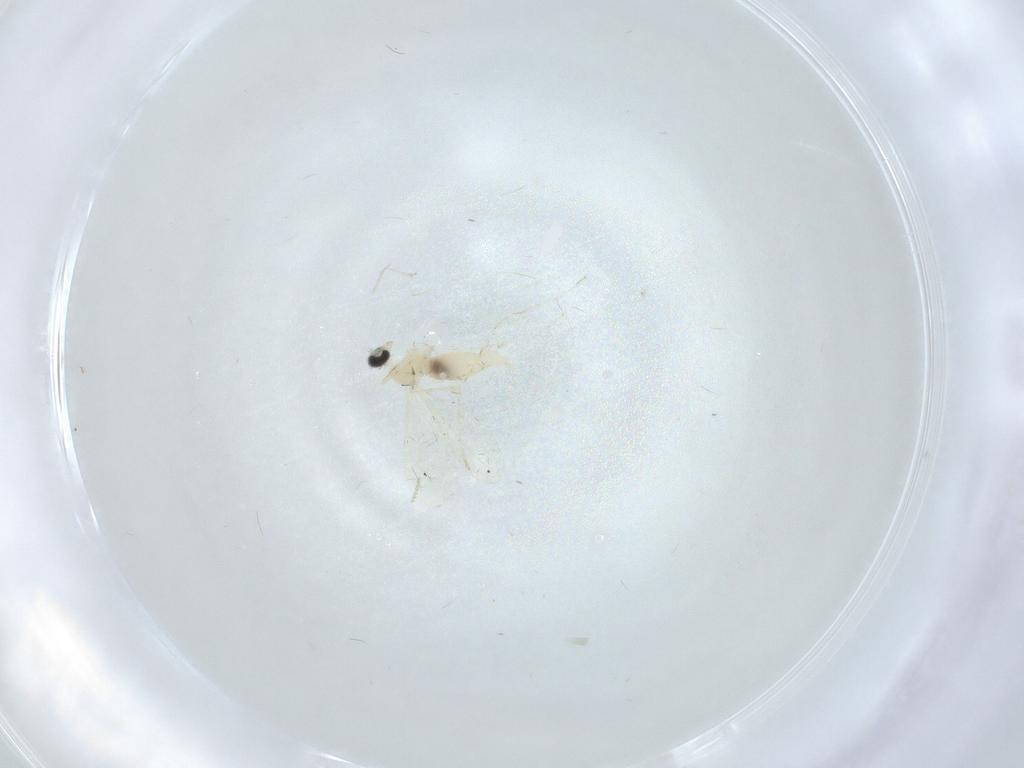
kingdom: Animalia
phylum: Arthropoda
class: Insecta
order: Diptera
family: Cecidomyiidae
